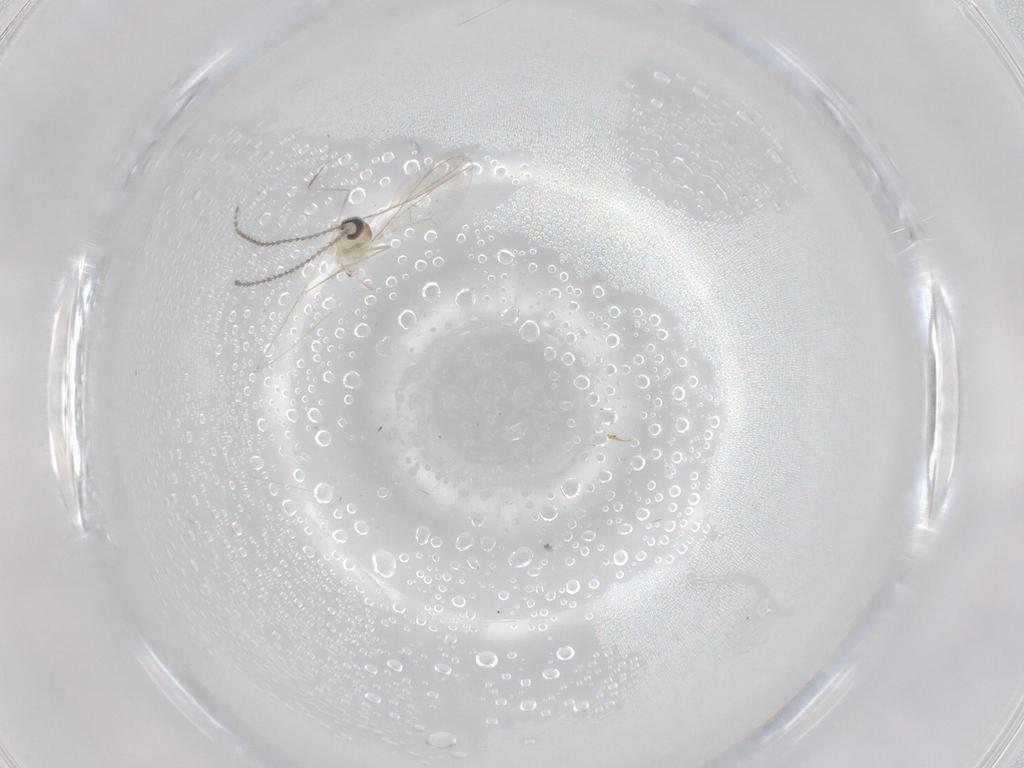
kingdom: Animalia
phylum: Arthropoda
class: Insecta
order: Diptera
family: Cecidomyiidae
